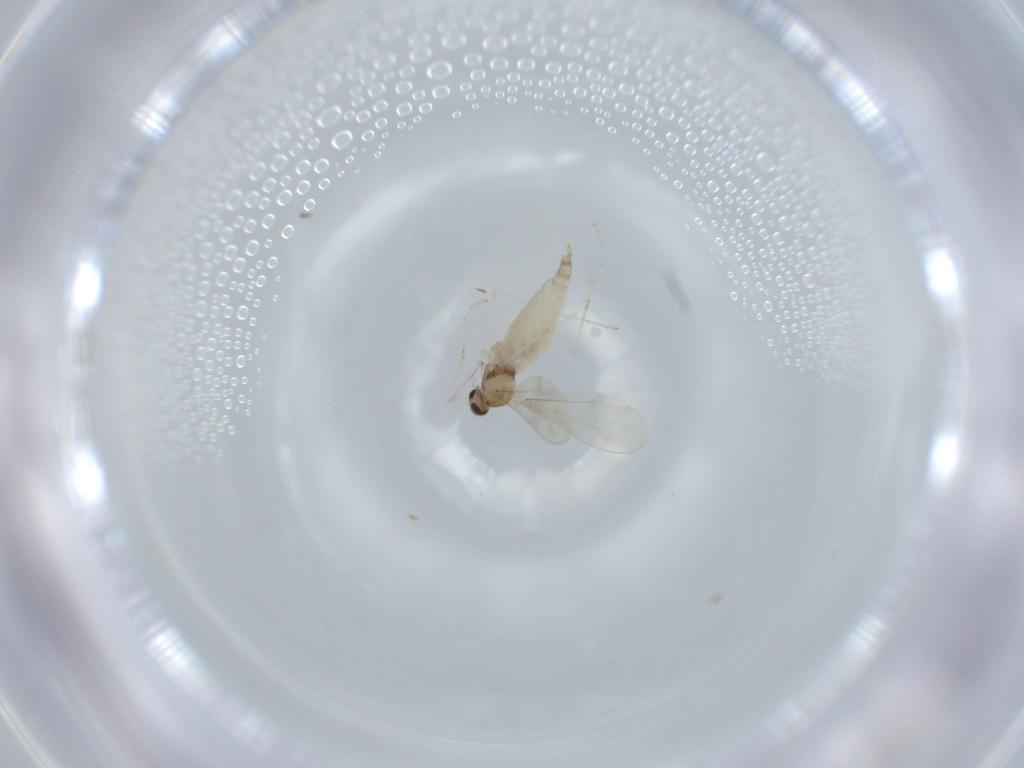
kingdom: Animalia
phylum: Arthropoda
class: Insecta
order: Diptera
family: Cecidomyiidae
